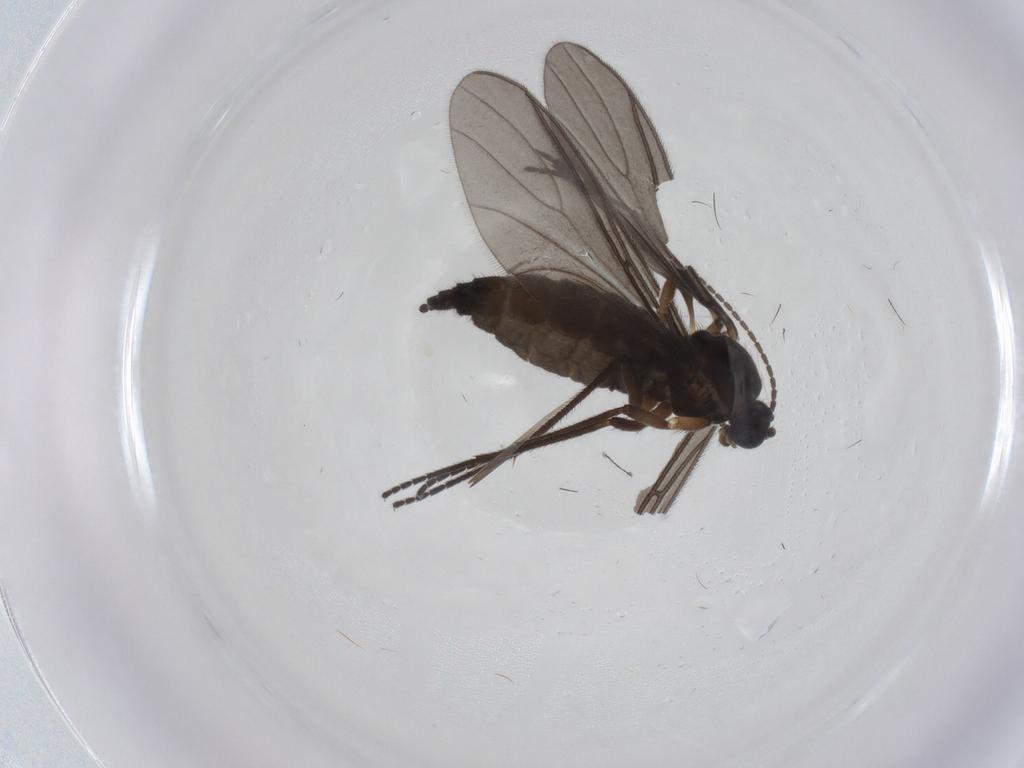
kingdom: Animalia
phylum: Arthropoda
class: Insecta
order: Diptera
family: Sciaridae
